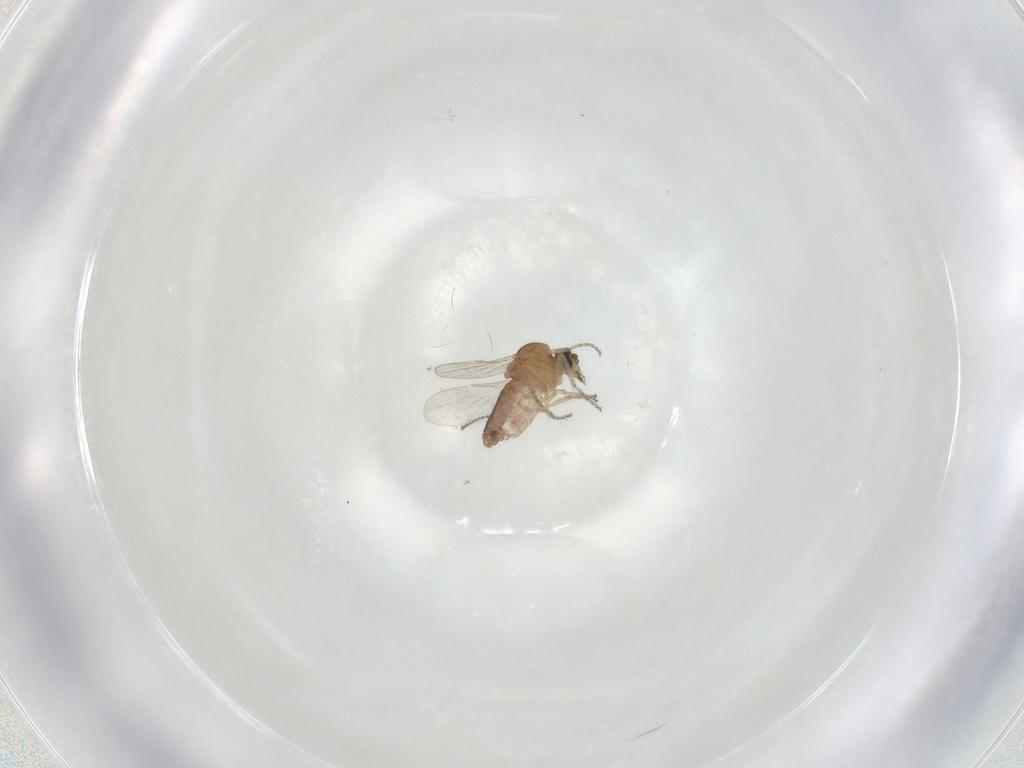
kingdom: Animalia
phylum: Arthropoda
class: Insecta
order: Diptera
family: Ceratopogonidae
